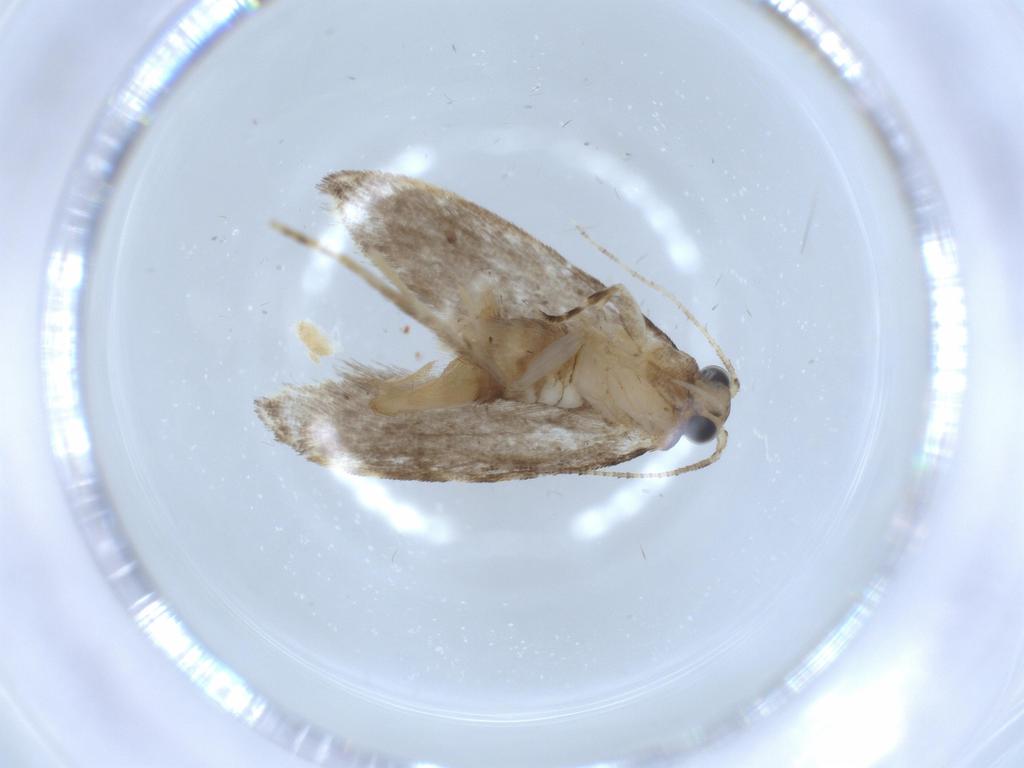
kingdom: Animalia
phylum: Arthropoda
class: Insecta
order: Lepidoptera
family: Tineidae
